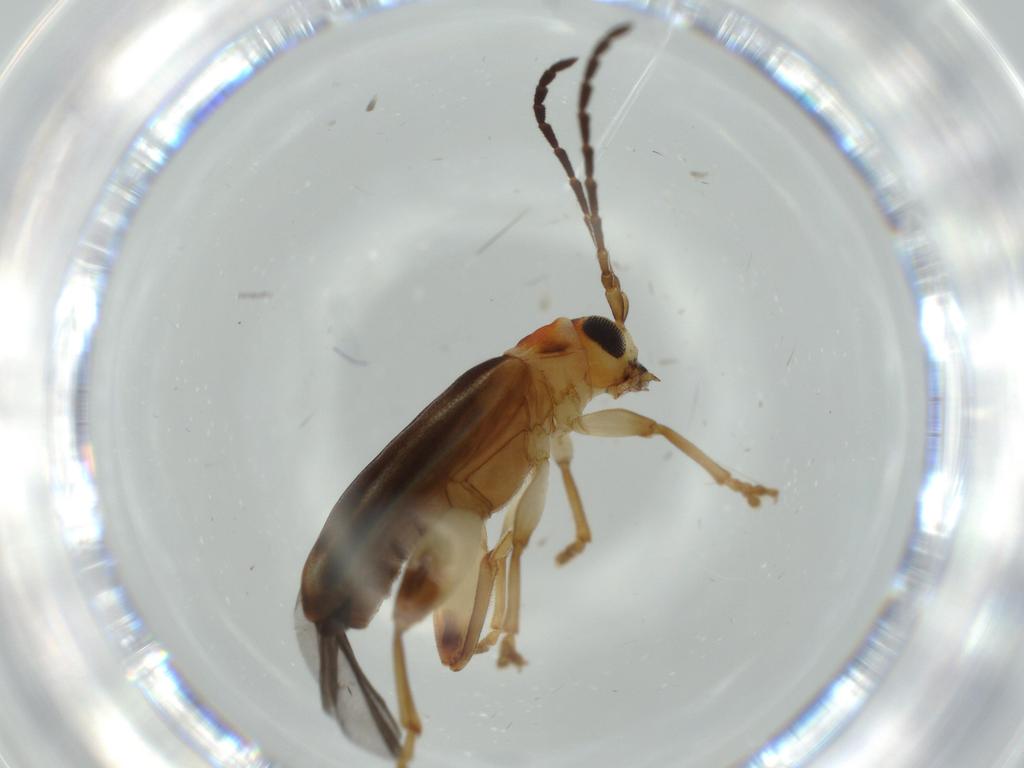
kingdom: Animalia
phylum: Arthropoda
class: Insecta
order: Coleoptera
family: Chrysomelidae
